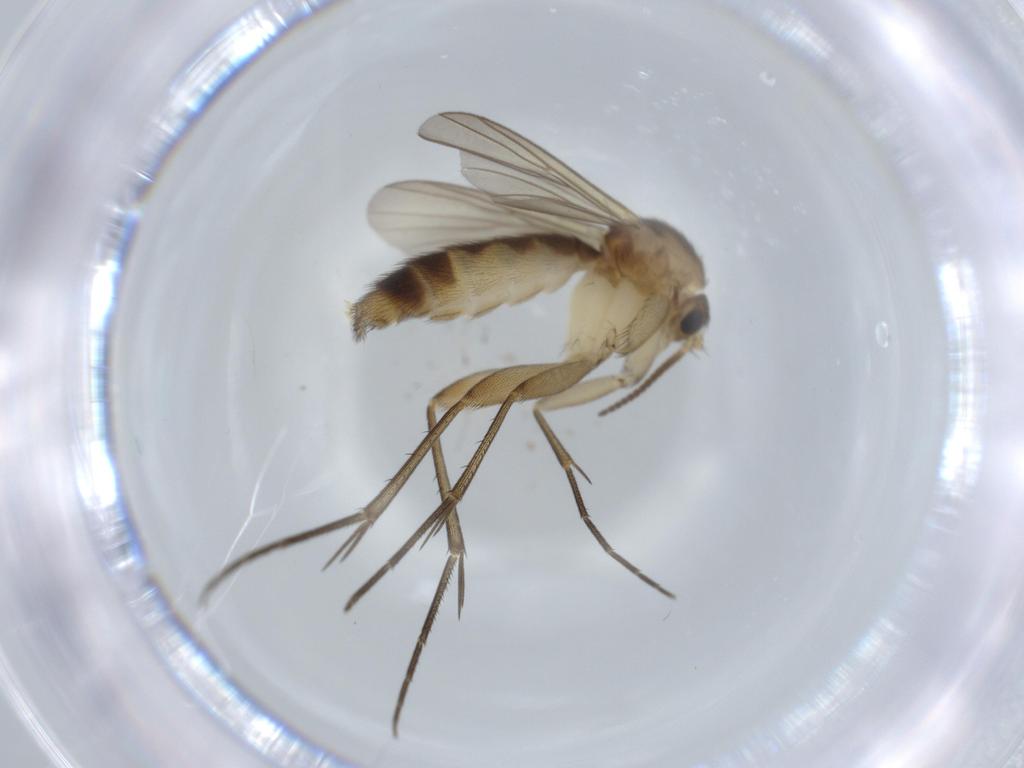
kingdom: Animalia
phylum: Arthropoda
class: Insecta
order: Diptera
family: Mycetophilidae
